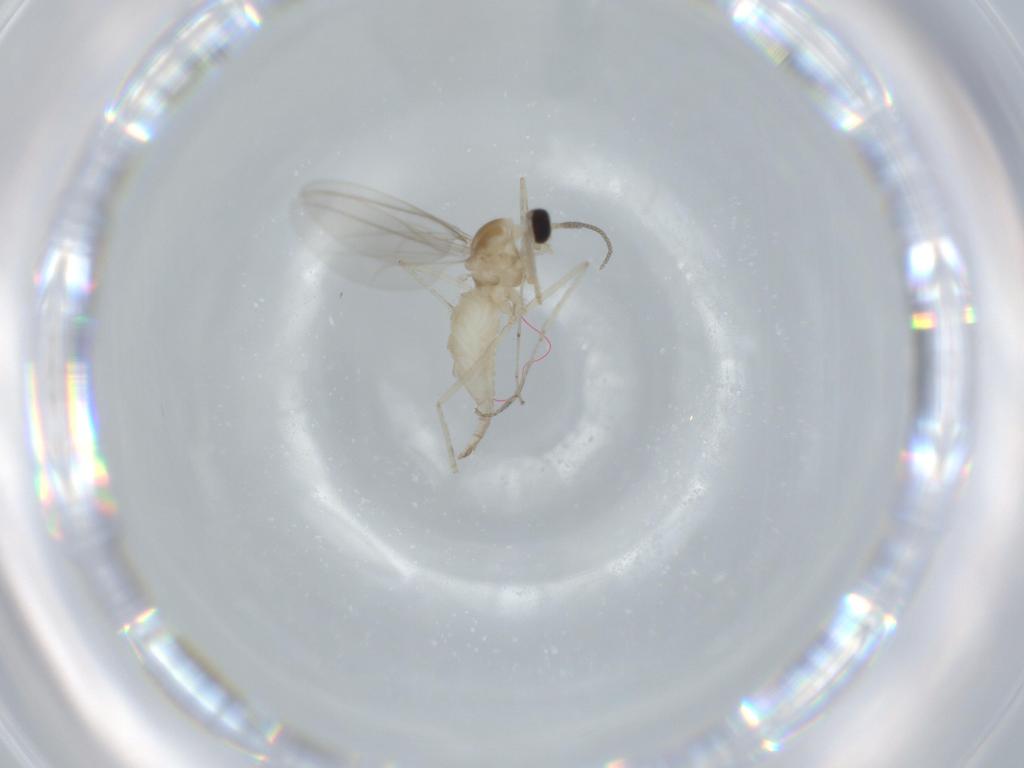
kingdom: Animalia
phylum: Arthropoda
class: Insecta
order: Diptera
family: Cecidomyiidae
